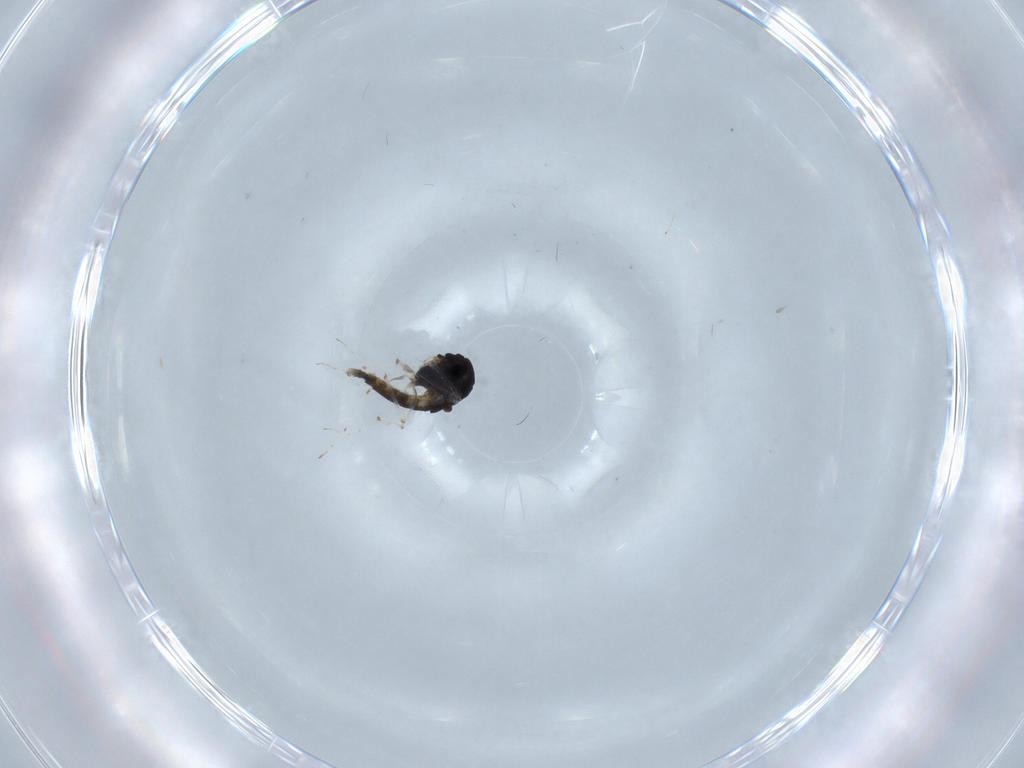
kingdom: Animalia
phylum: Arthropoda
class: Insecta
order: Diptera
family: Chironomidae
